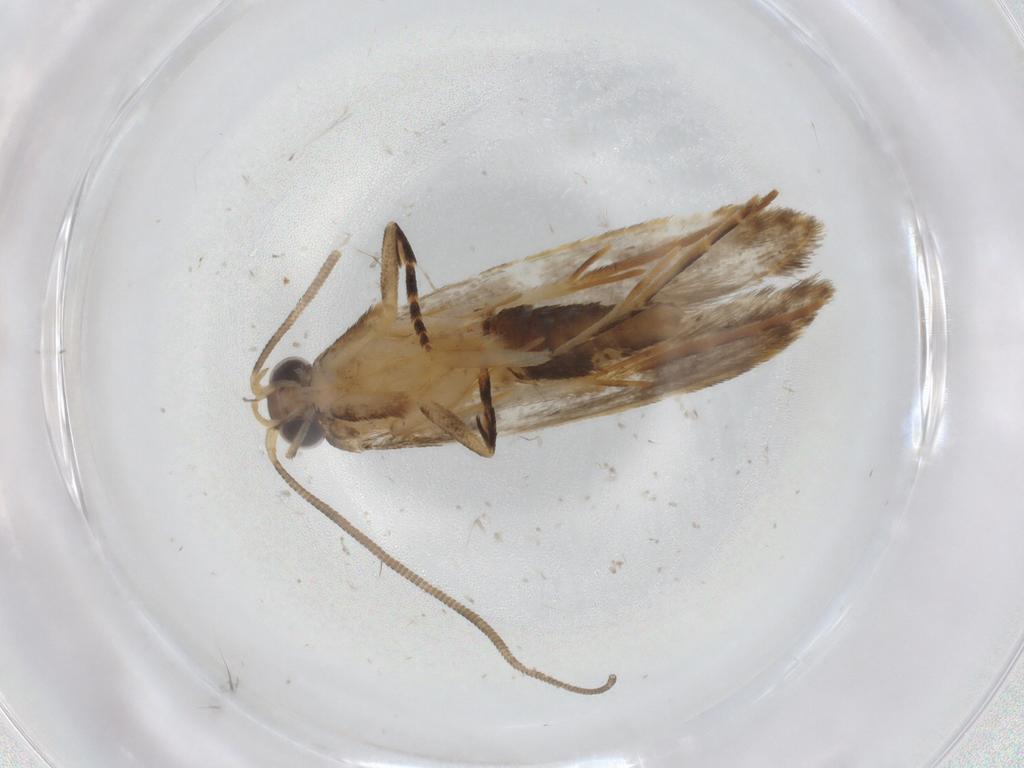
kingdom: Animalia
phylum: Arthropoda
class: Insecta
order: Lepidoptera
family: Tineidae
